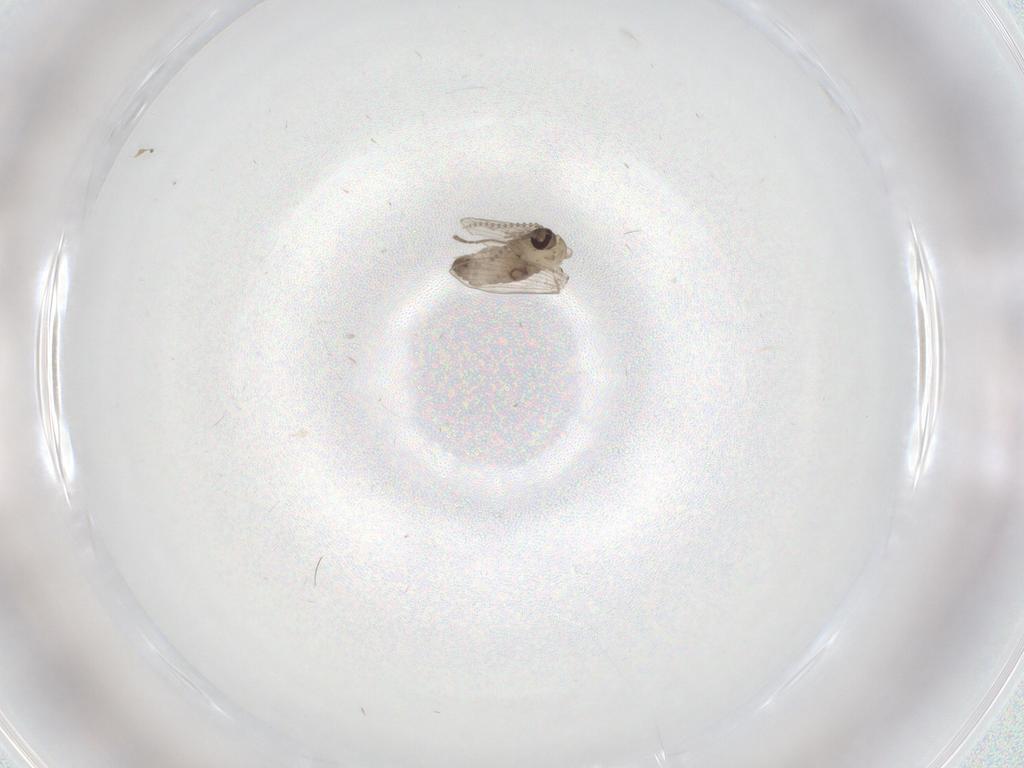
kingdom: Animalia
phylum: Arthropoda
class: Insecta
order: Diptera
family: Psychodidae
